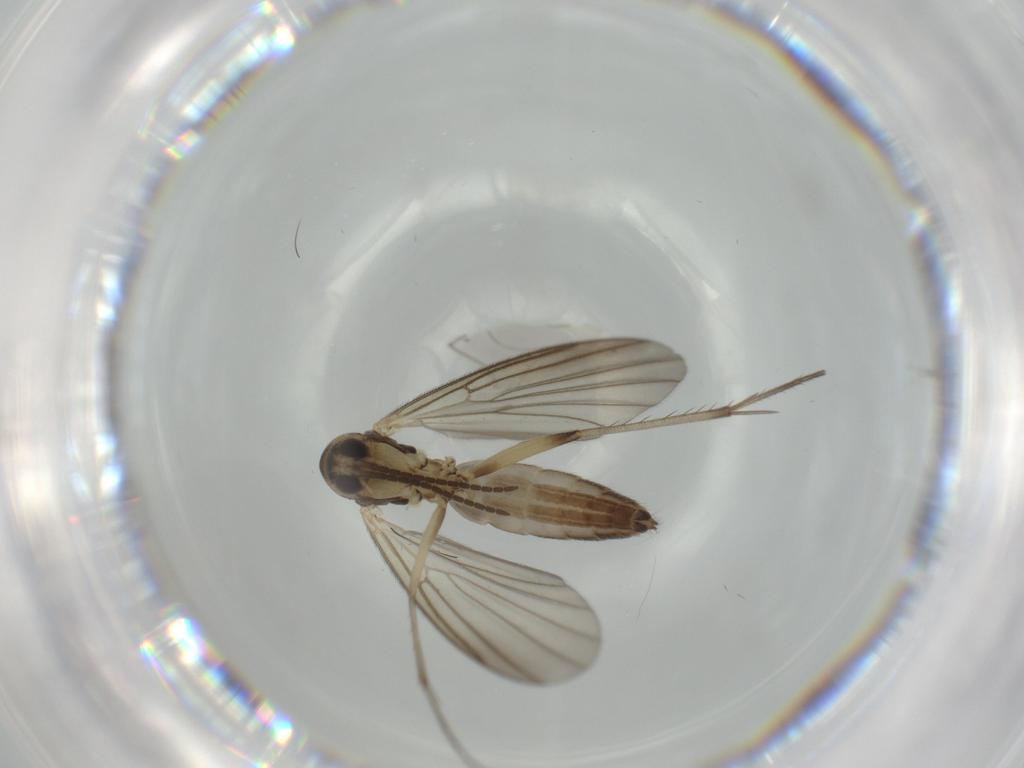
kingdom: Animalia
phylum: Arthropoda
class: Insecta
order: Diptera
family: Mycetophilidae
